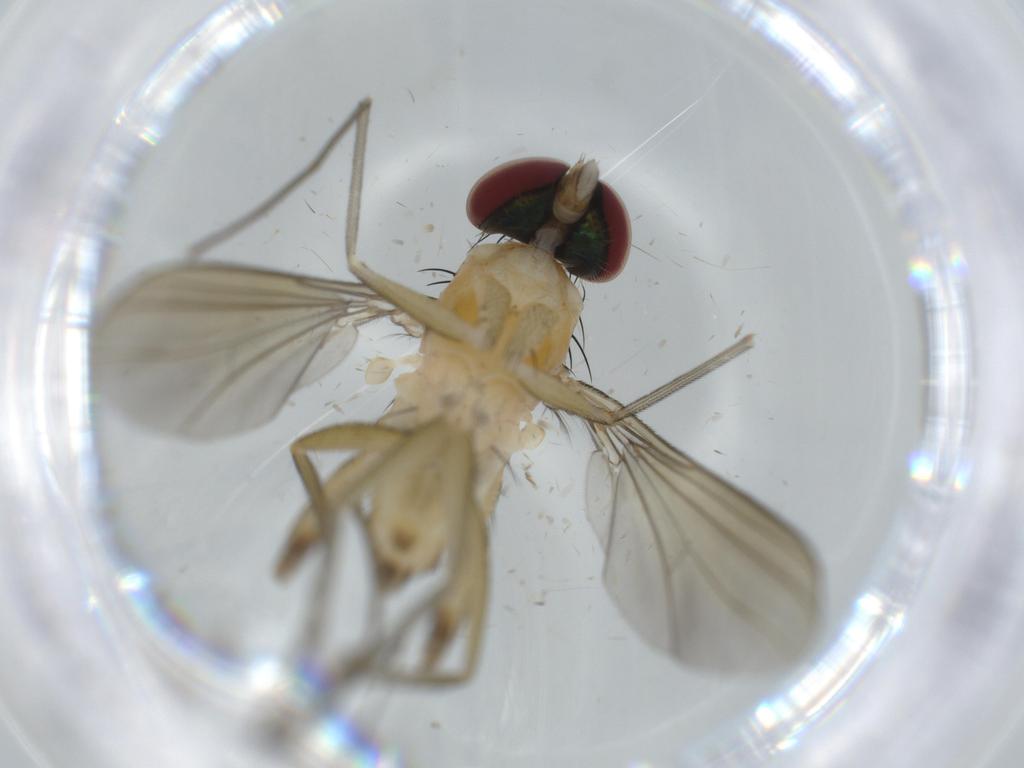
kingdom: Animalia
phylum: Arthropoda
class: Insecta
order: Diptera
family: Dolichopodidae
